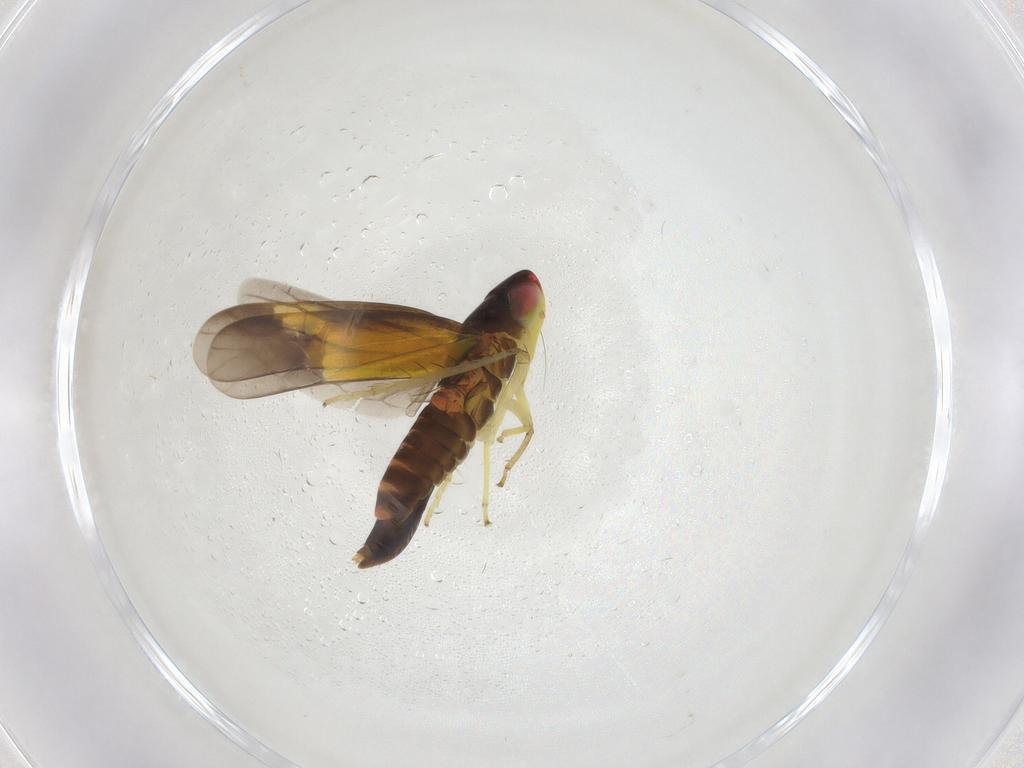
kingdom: Animalia
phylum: Arthropoda
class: Insecta
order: Hemiptera
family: Cicadellidae
